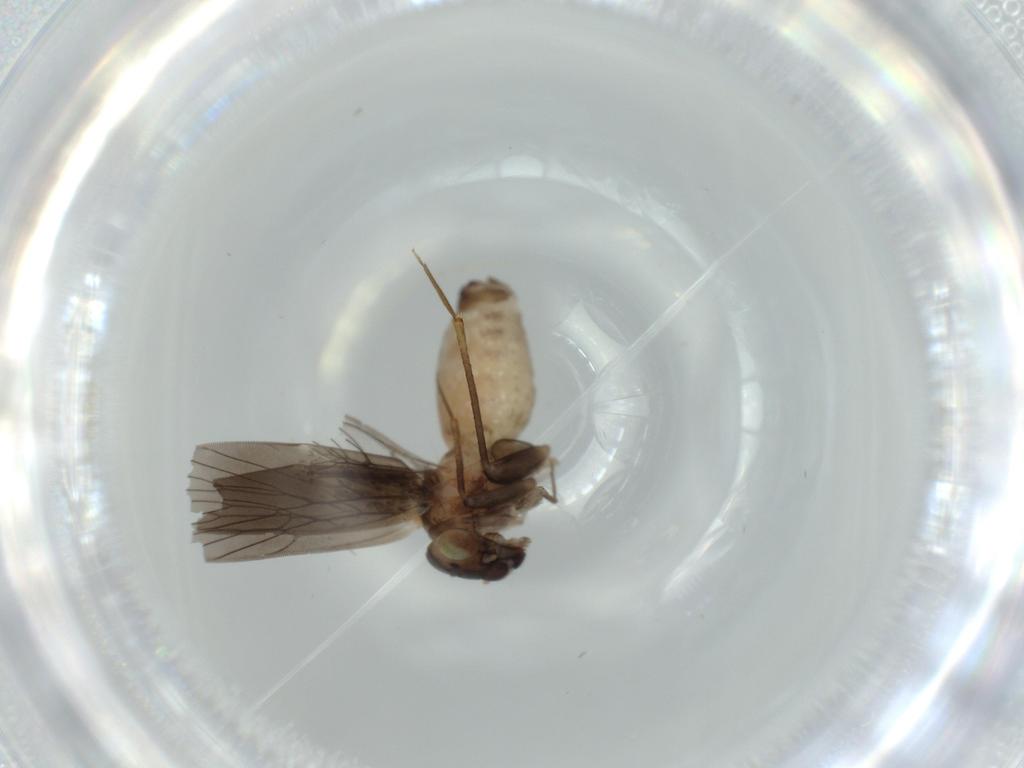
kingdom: Animalia
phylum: Arthropoda
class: Insecta
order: Psocodea
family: Lepidopsocidae
